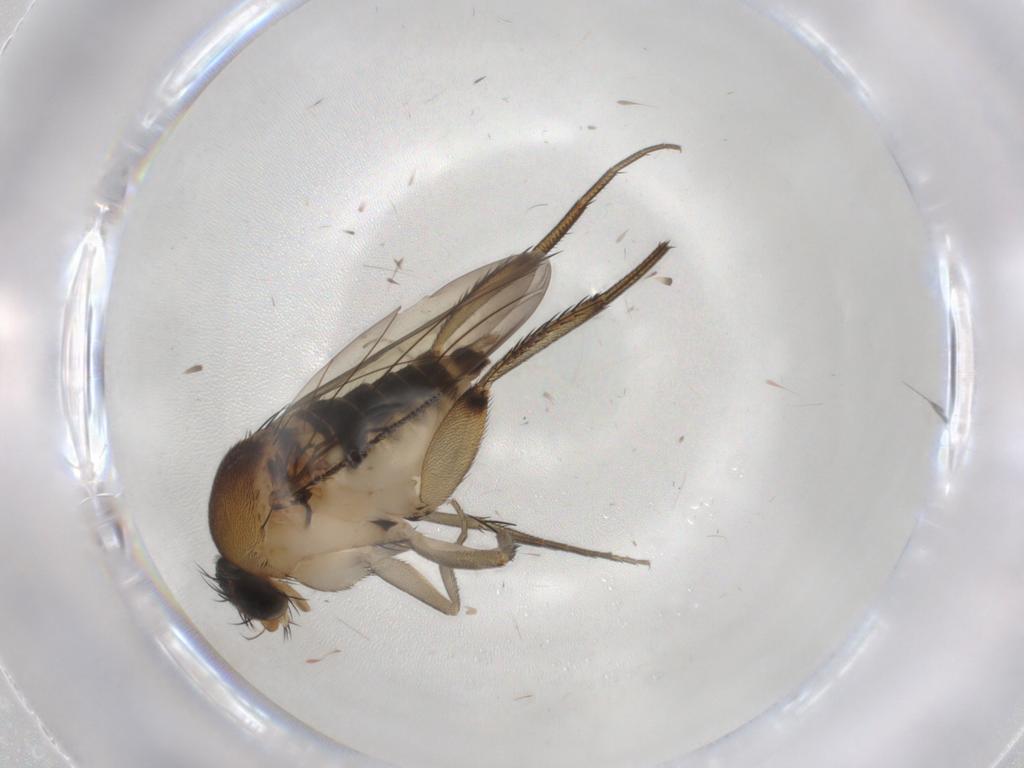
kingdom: Animalia
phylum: Arthropoda
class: Insecta
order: Diptera
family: Phoridae
